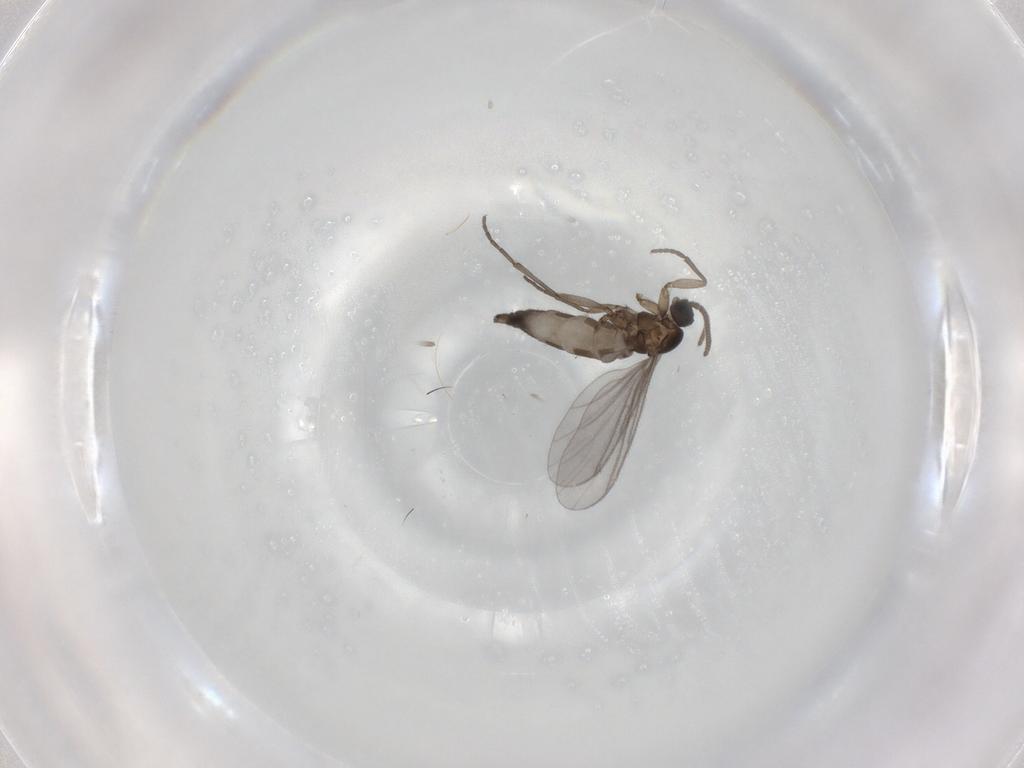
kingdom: Animalia
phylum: Arthropoda
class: Insecta
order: Diptera
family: Sciaridae
